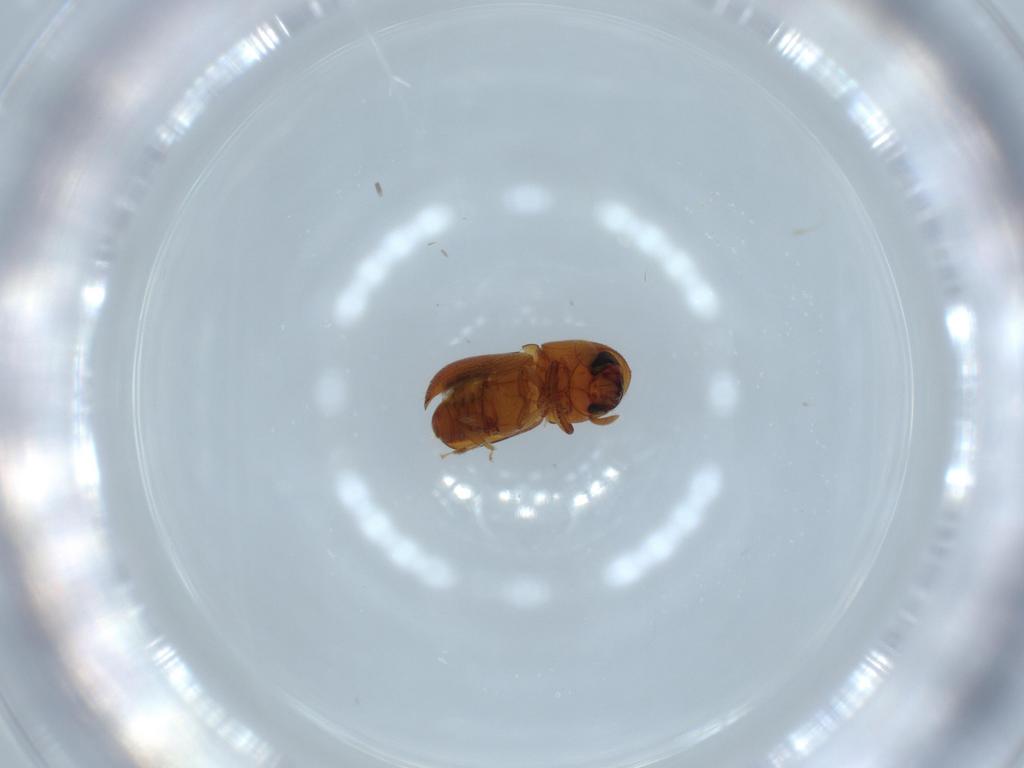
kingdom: Animalia
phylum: Arthropoda
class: Insecta
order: Coleoptera
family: Curculionidae
